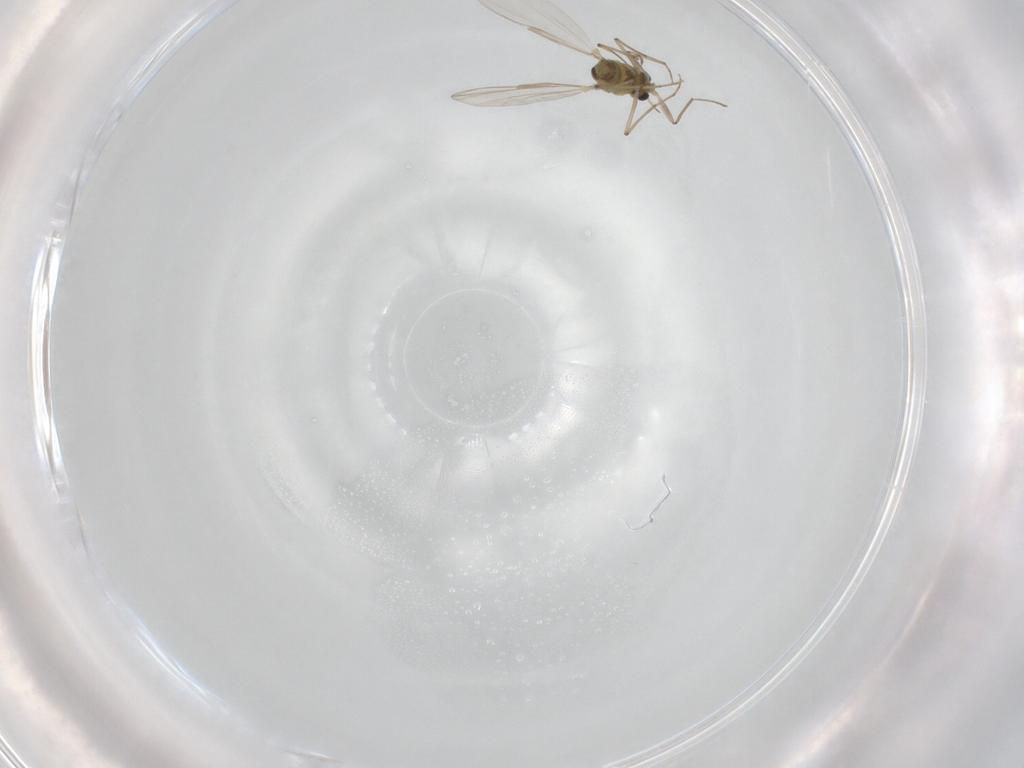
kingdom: Animalia
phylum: Arthropoda
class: Insecta
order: Diptera
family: Chironomidae
